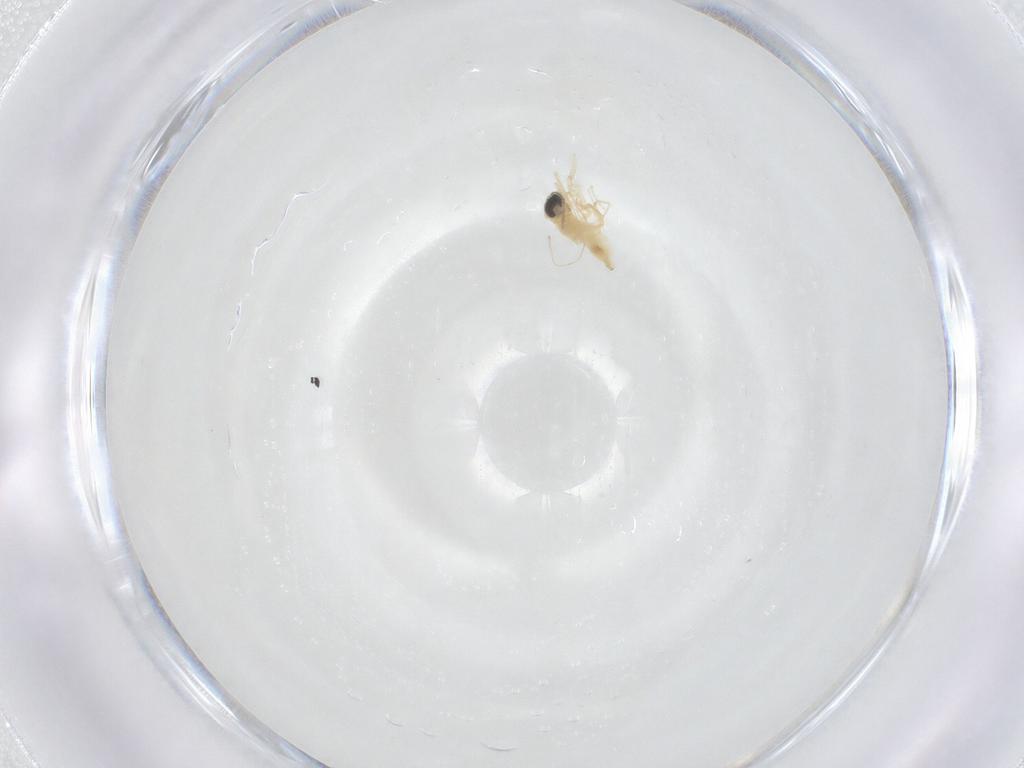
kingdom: Animalia
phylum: Arthropoda
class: Insecta
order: Diptera
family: Cecidomyiidae
